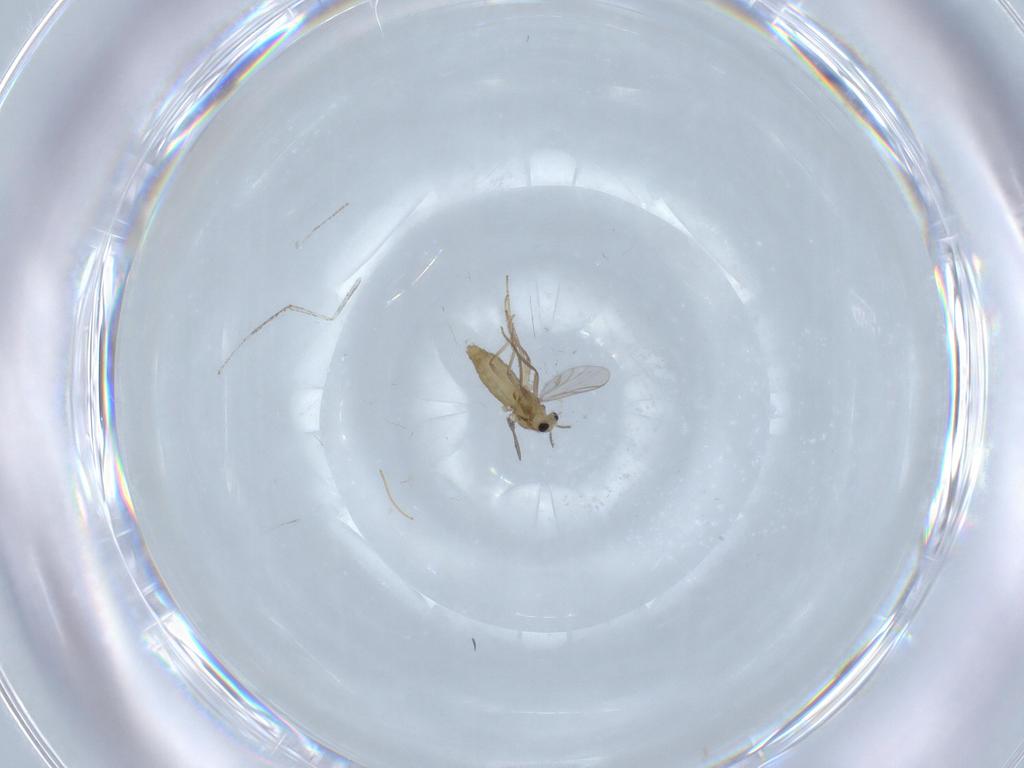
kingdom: Animalia
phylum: Arthropoda
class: Insecta
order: Diptera
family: Chironomidae
